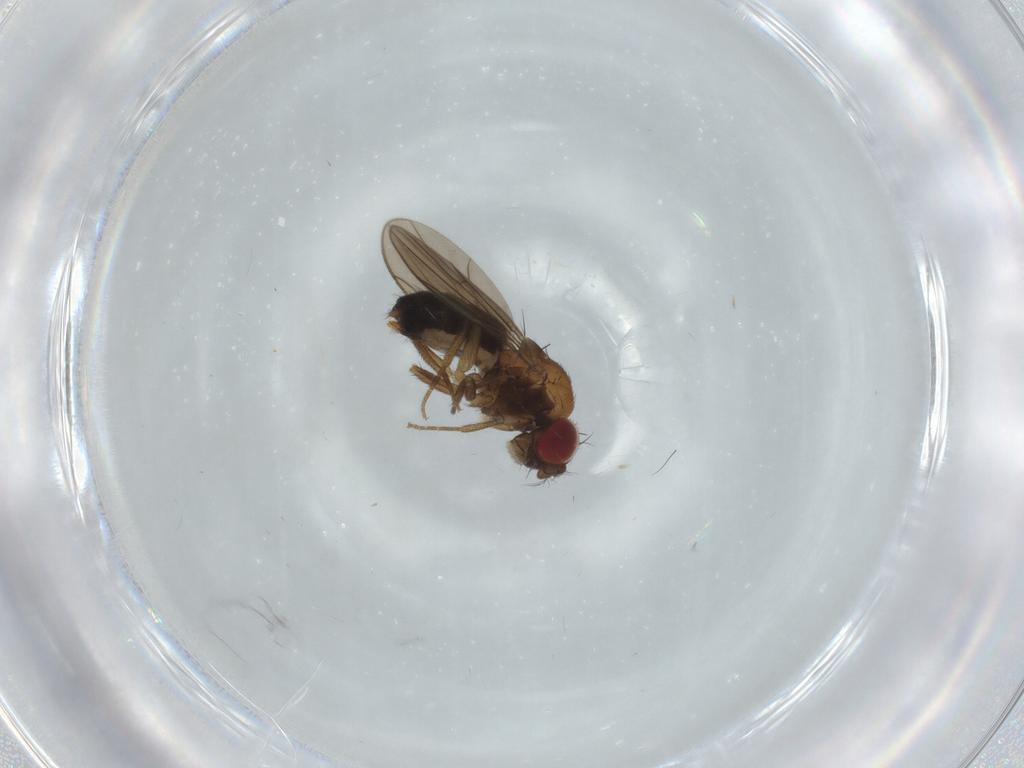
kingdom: Animalia
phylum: Arthropoda
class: Insecta
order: Diptera
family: Drosophilidae
